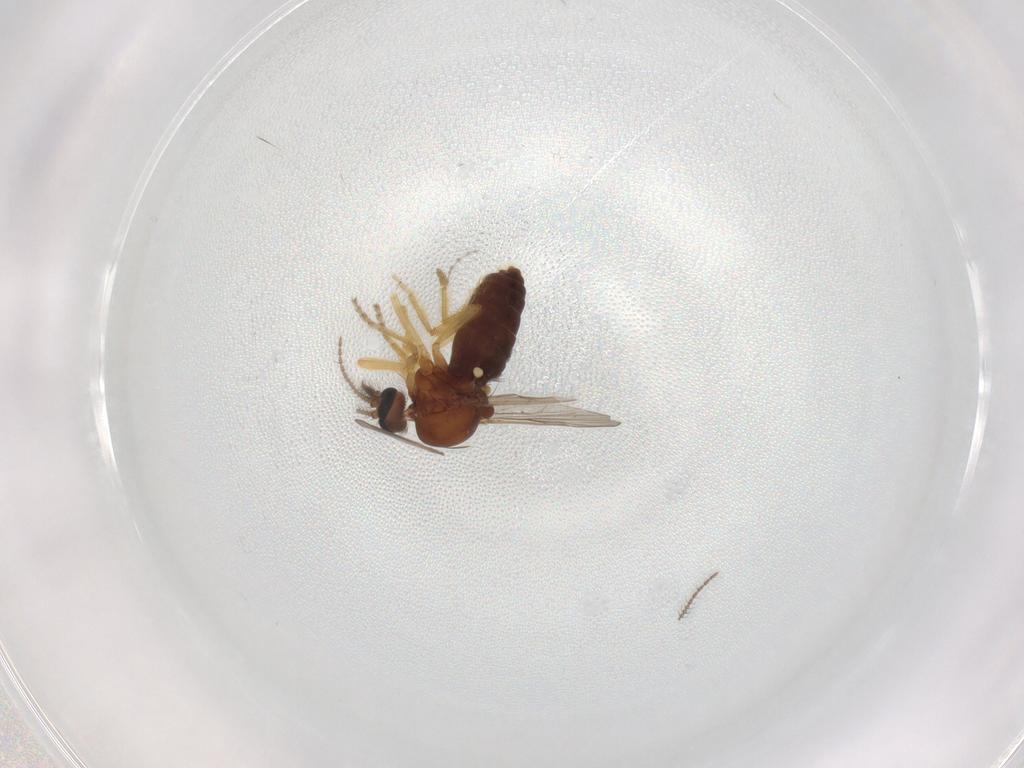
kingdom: Animalia
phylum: Arthropoda
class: Insecta
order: Diptera
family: Ceratopogonidae
